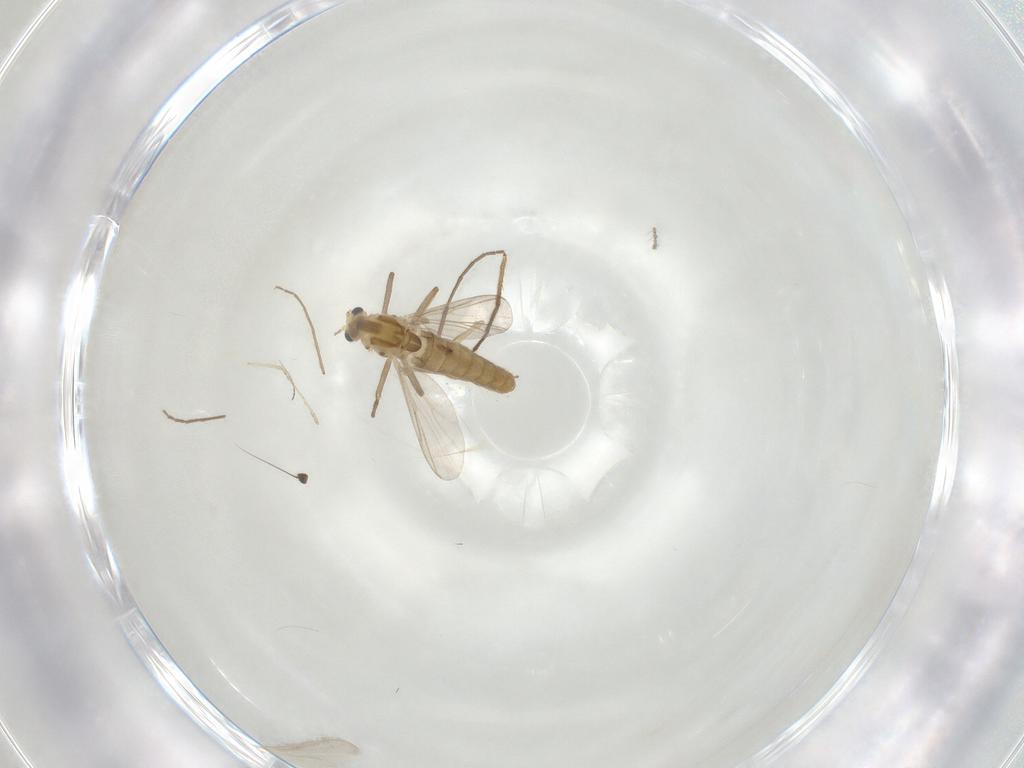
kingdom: Animalia
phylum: Arthropoda
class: Insecta
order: Diptera
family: Chironomidae
